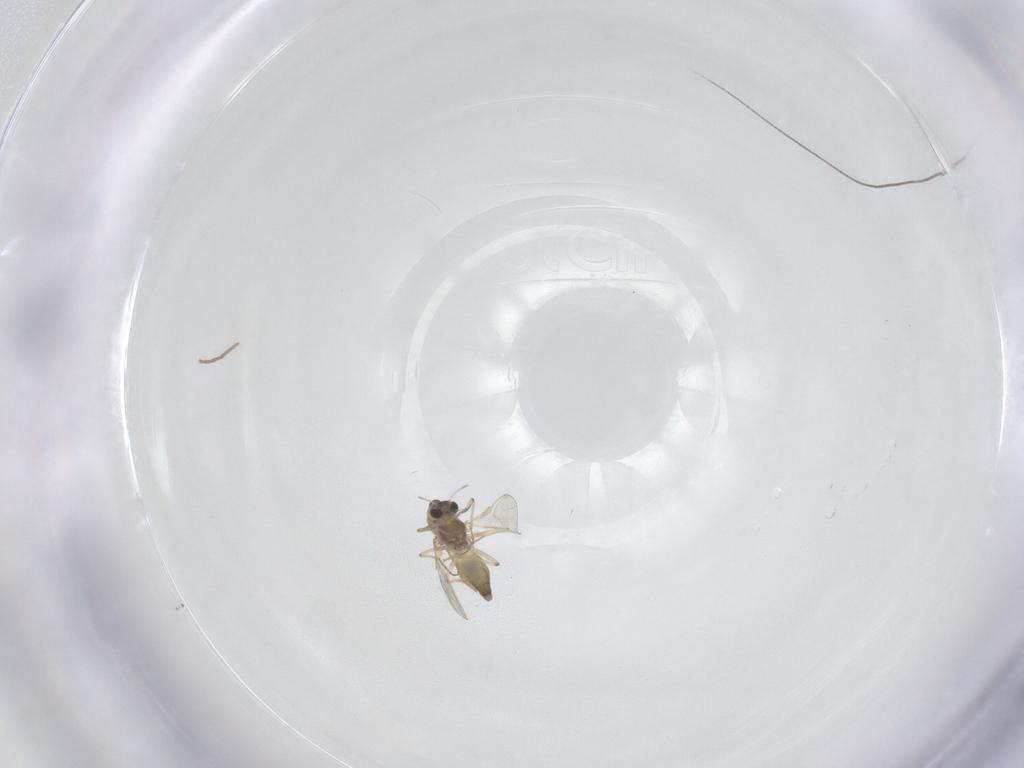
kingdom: Animalia
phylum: Arthropoda
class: Insecta
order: Diptera
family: Chironomidae
